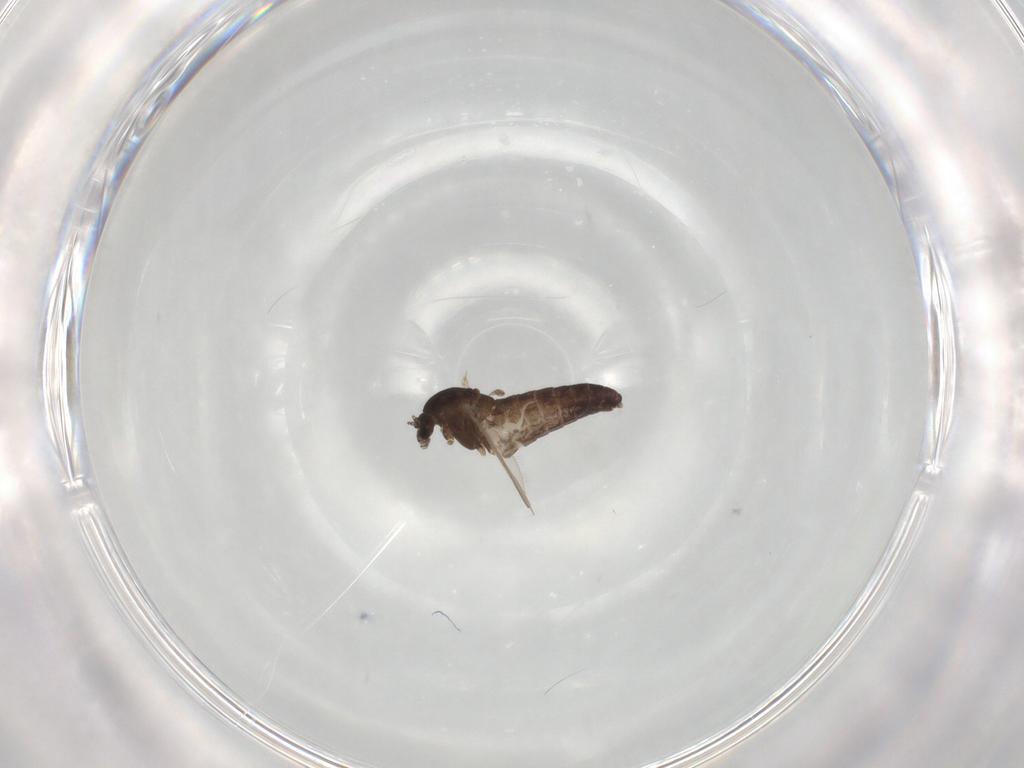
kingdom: Animalia
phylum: Arthropoda
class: Insecta
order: Diptera
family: Chironomidae
